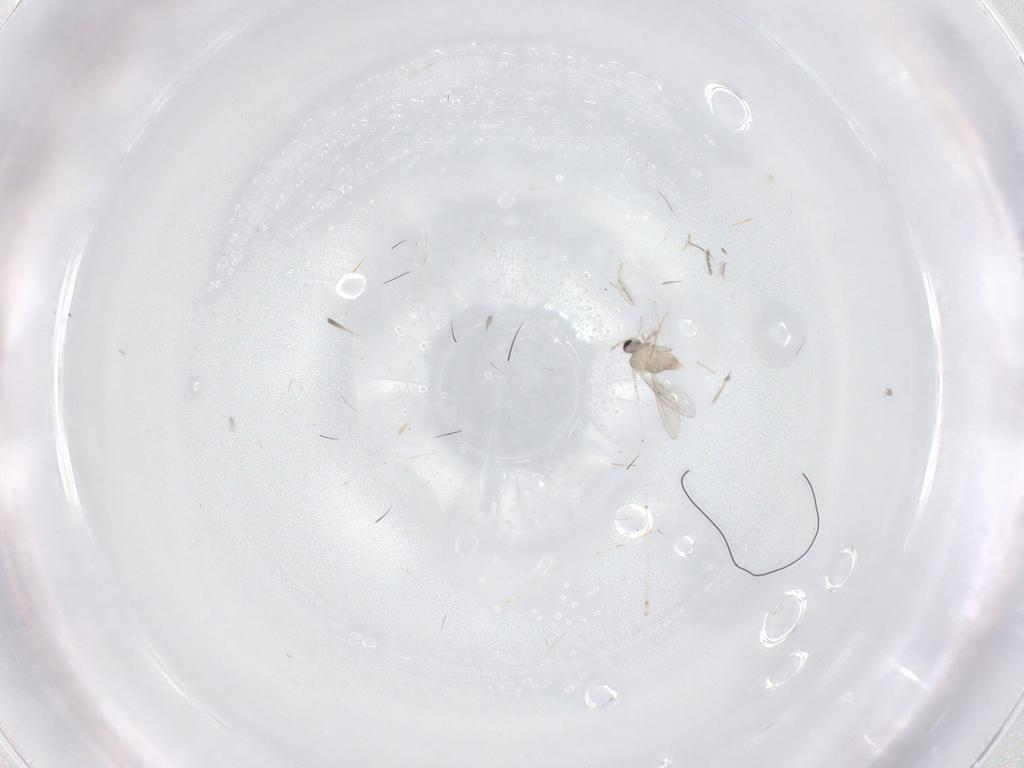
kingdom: Animalia
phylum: Arthropoda
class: Insecta
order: Diptera
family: Cecidomyiidae
